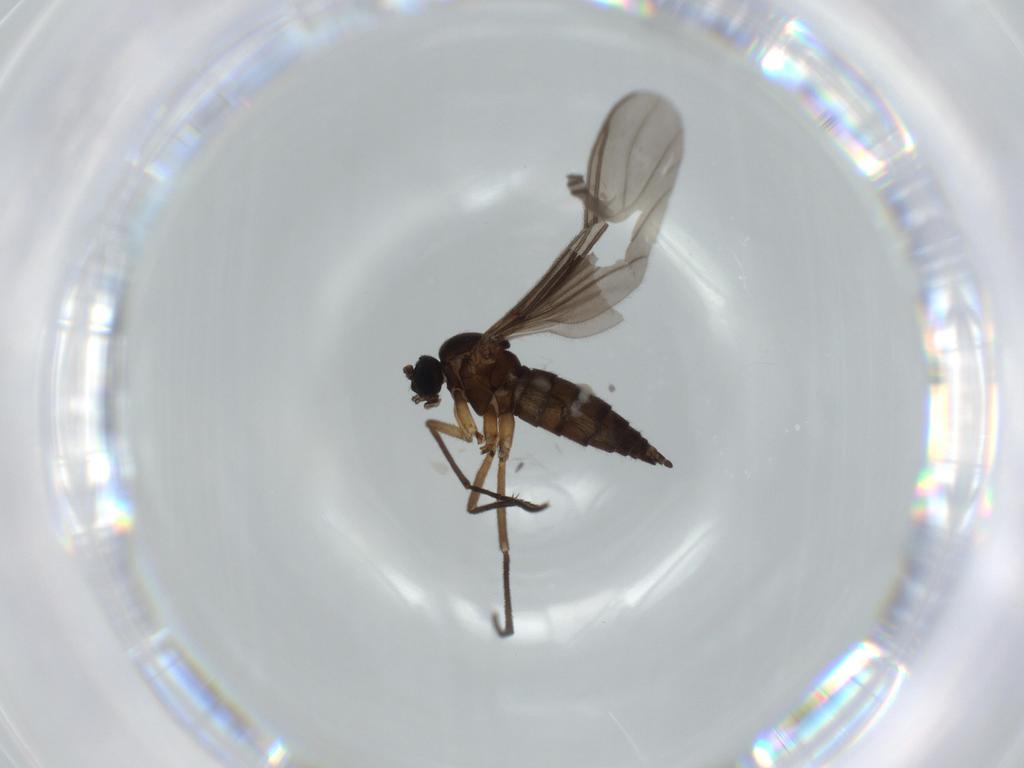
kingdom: Animalia
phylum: Arthropoda
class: Insecta
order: Diptera
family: Sciaridae
